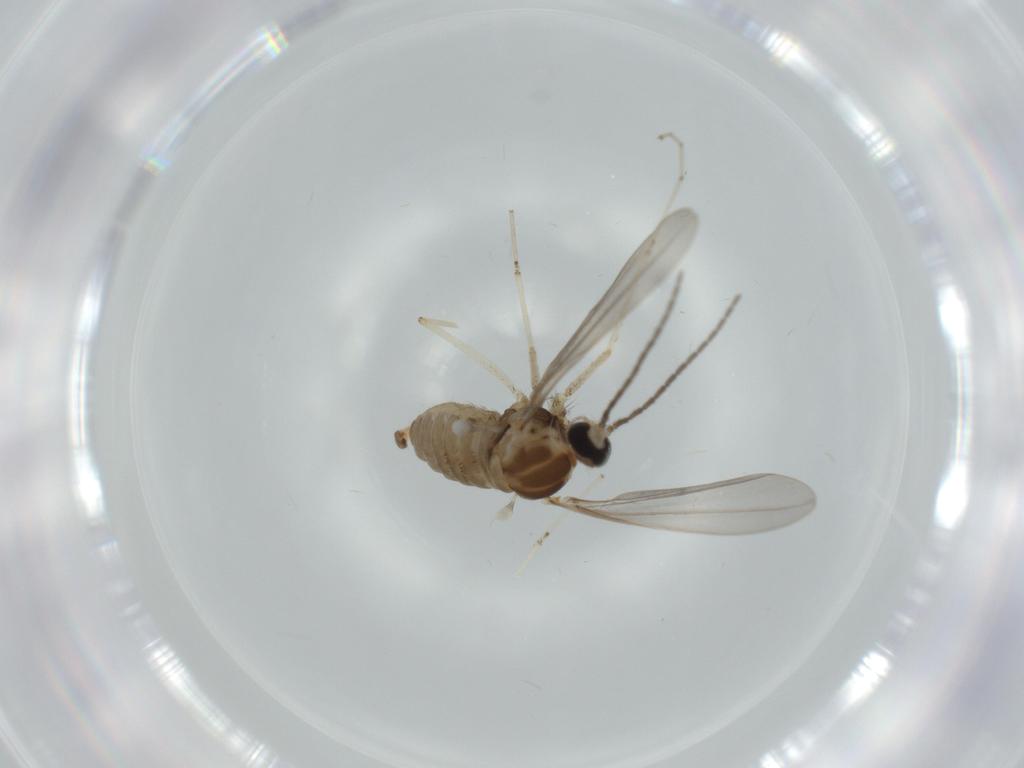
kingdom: Animalia
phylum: Arthropoda
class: Insecta
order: Diptera
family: Cecidomyiidae
